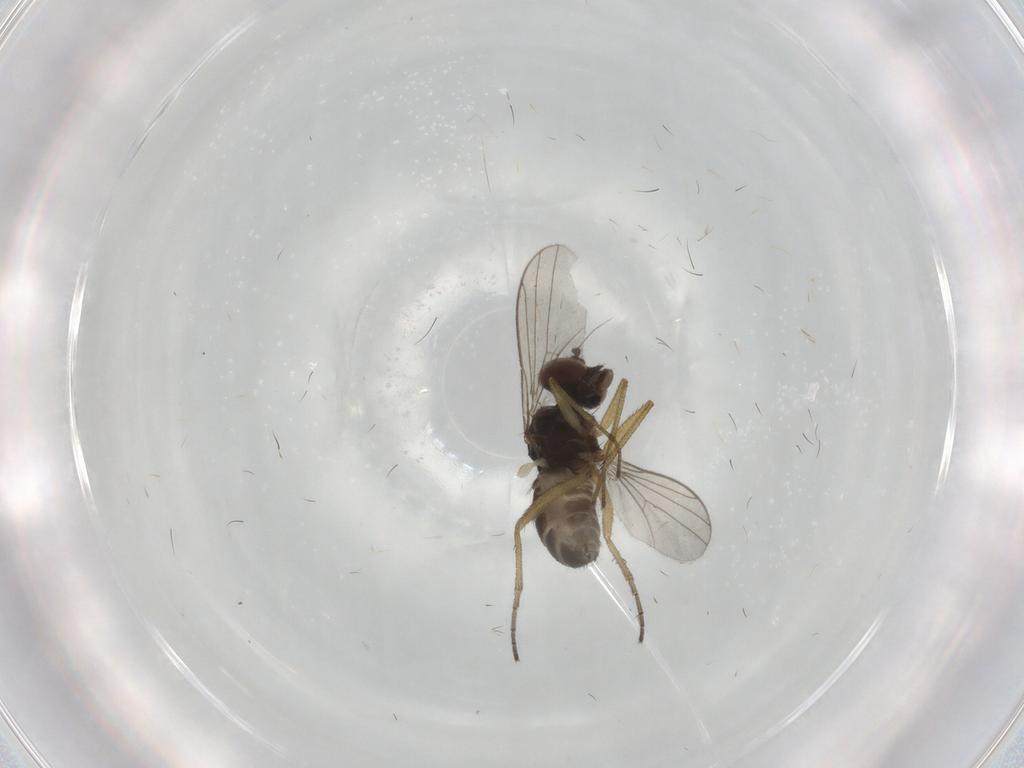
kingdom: Animalia
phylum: Arthropoda
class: Insecta
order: Diptera
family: Dolichopodidae
